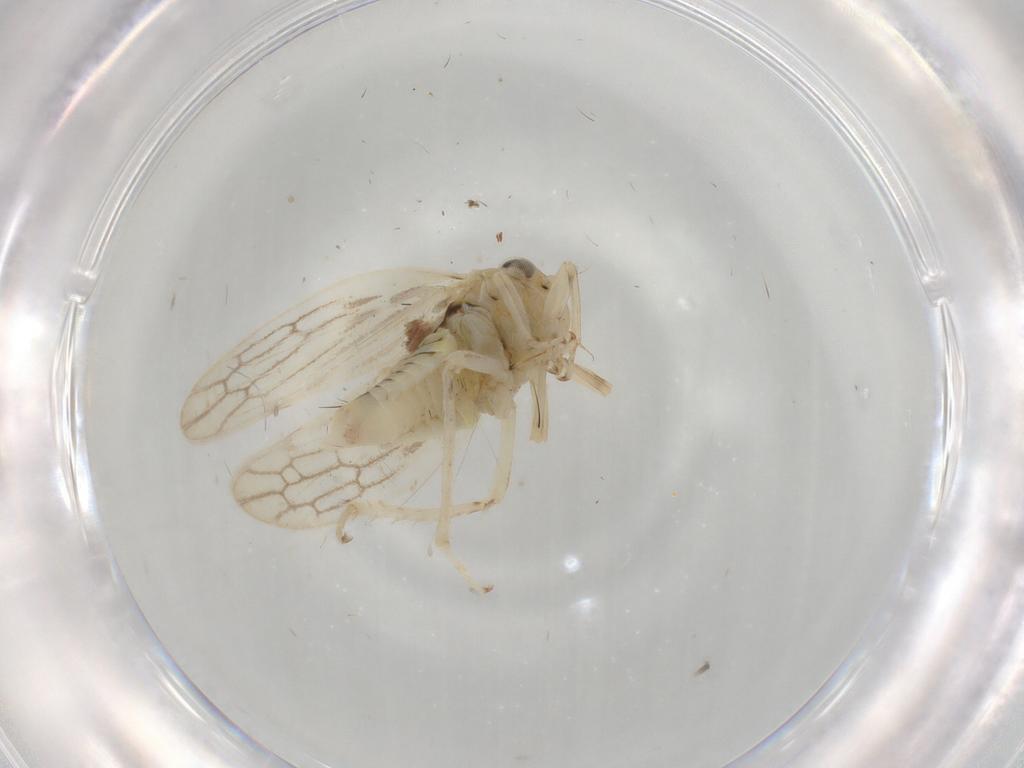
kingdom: Animalia
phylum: Arthropoda
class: Insecta
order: Hemiptera
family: Cicadellidae
